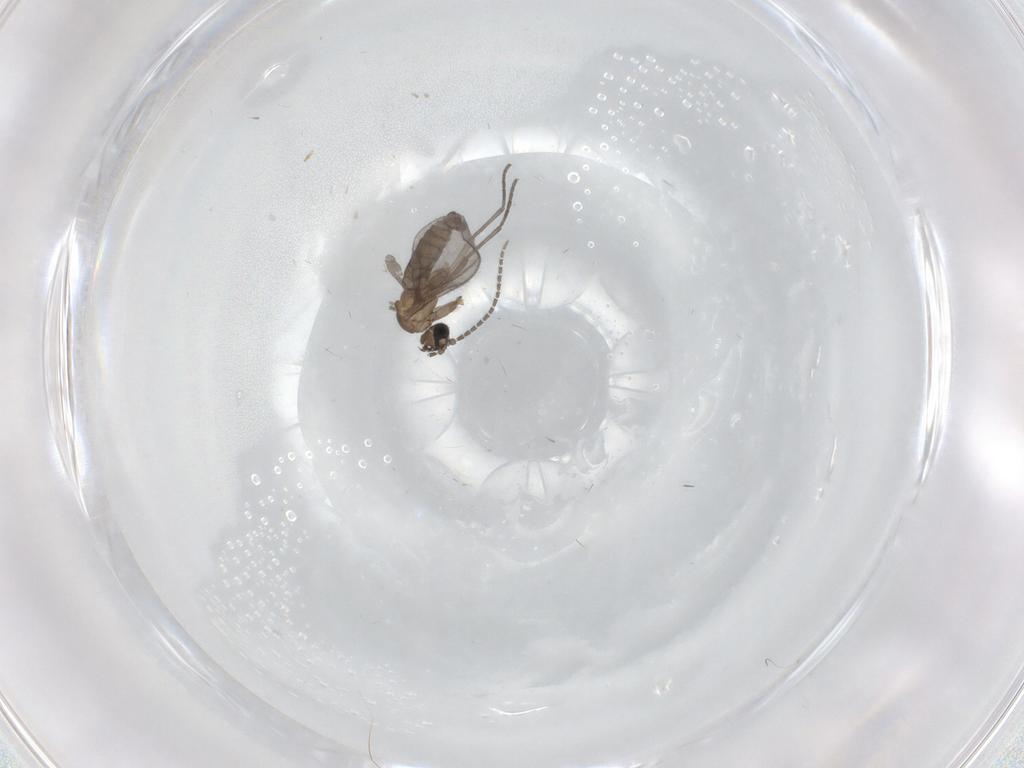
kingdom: Animalia
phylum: Arthropoda
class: Insecta
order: Diptera
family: Sciaridae
